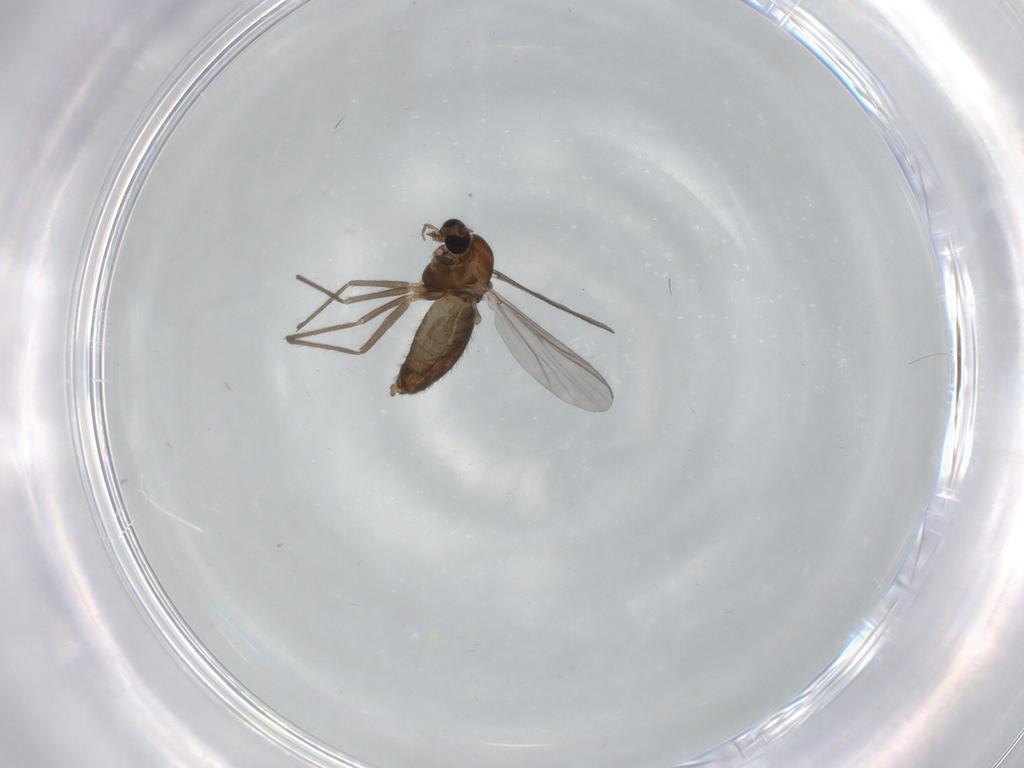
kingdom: Animalia
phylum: Arthropoda
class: Insecta
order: Diptera
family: Chironomidae
